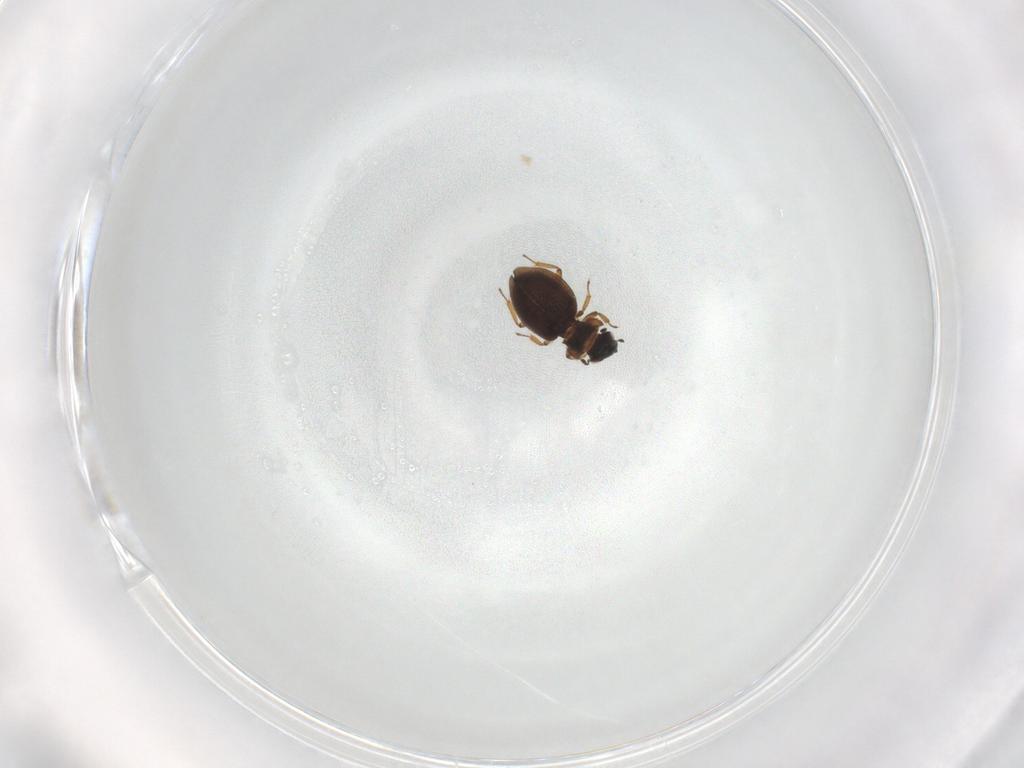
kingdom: Animalia
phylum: Arthropoda
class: Insecta
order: Coleoptera
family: Hydraenidae
